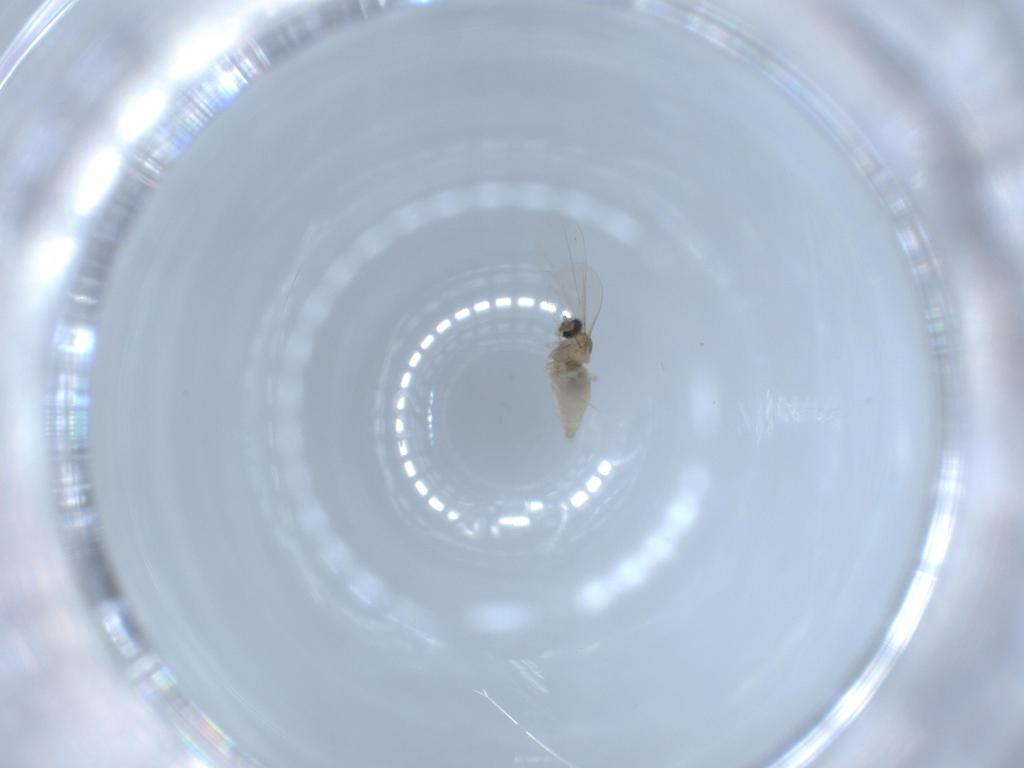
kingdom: Animalia
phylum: Arthropoda
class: Insecta
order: Diptera
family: Cecidomyiidae
